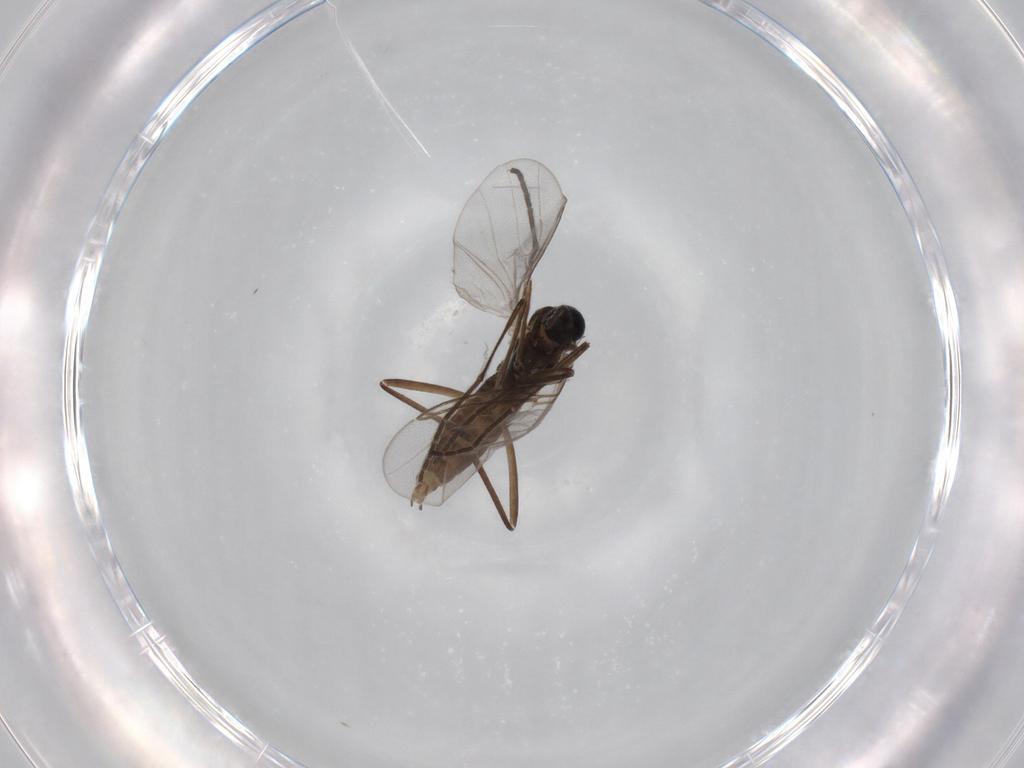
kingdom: Animalia
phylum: Arthropoda
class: Insecta
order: Diptera
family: Cecidomyiidae
